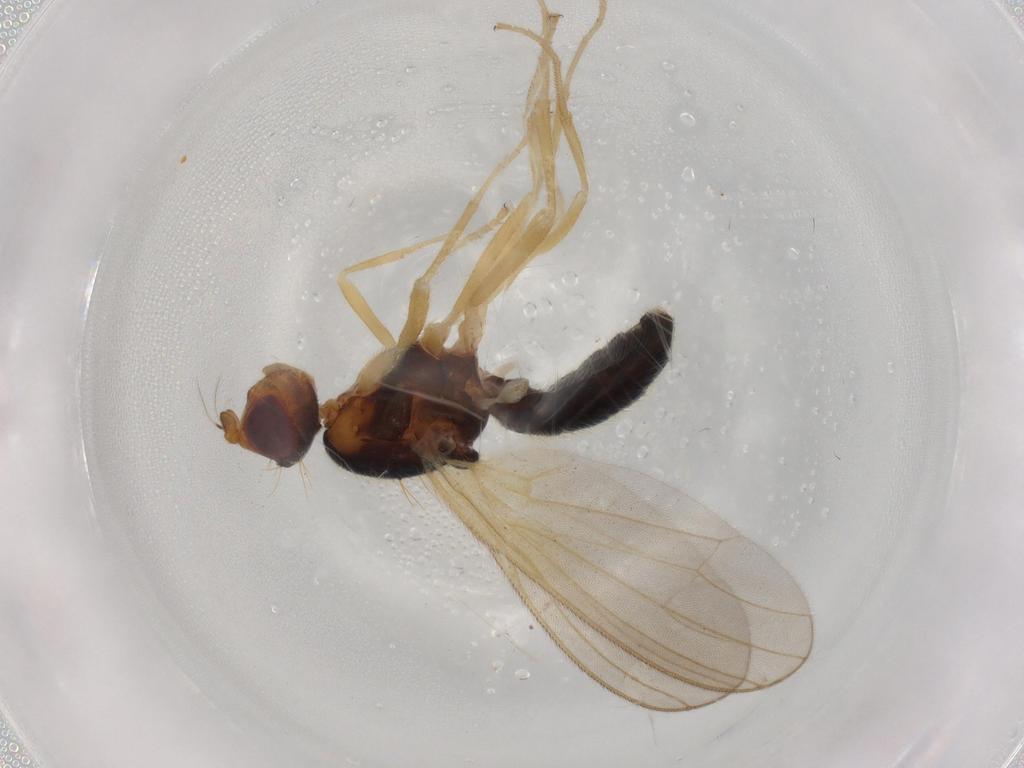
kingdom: Animalia
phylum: Arthropoda
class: Insecta
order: Diptera
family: Hybotidae
